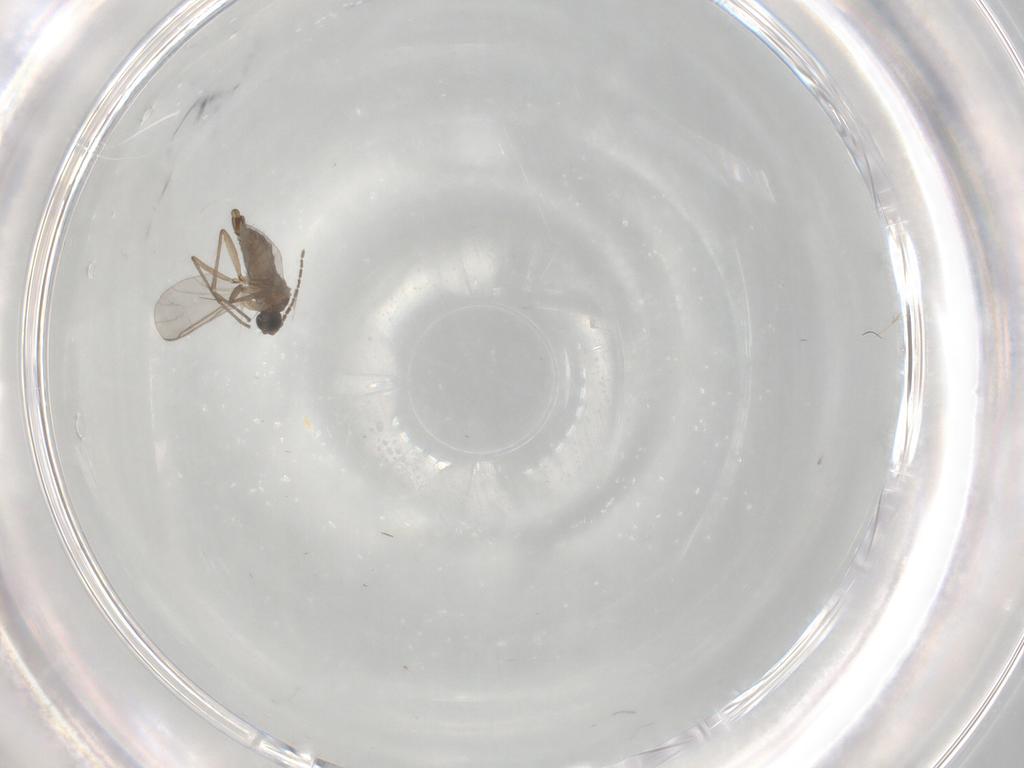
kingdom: Animalia
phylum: Arthropoda
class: Insecta
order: Diptera
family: Sciaridae
